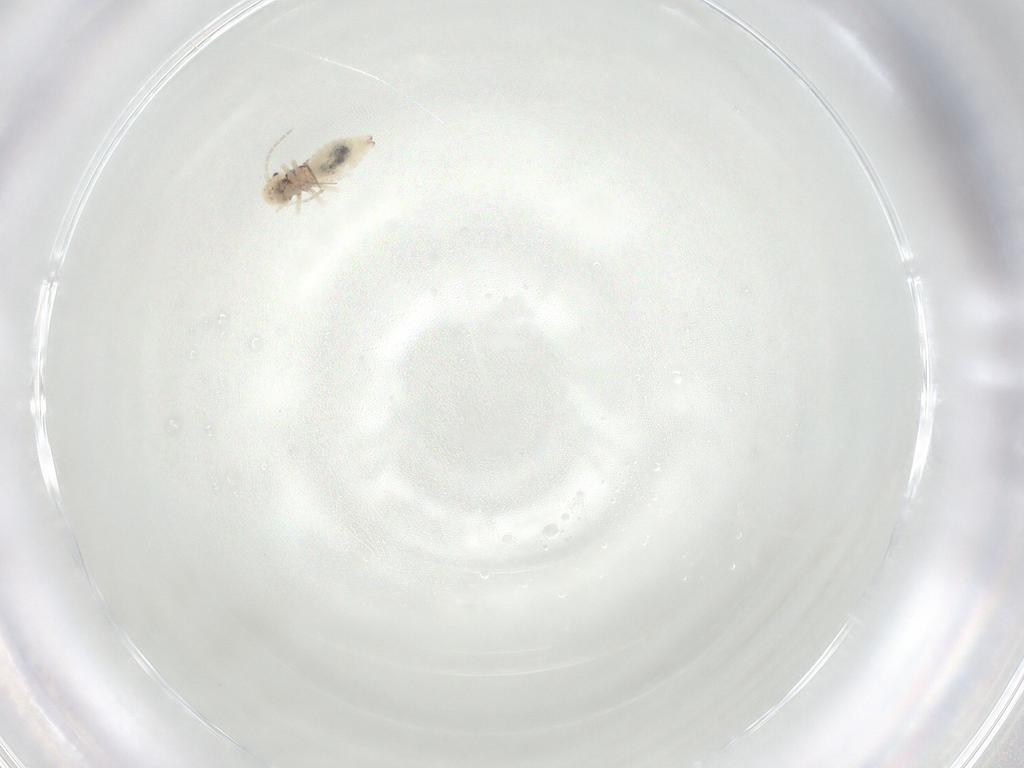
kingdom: Animalia
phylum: Arthropoda
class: Insecta
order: Psocodea
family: Amphipsocidae
